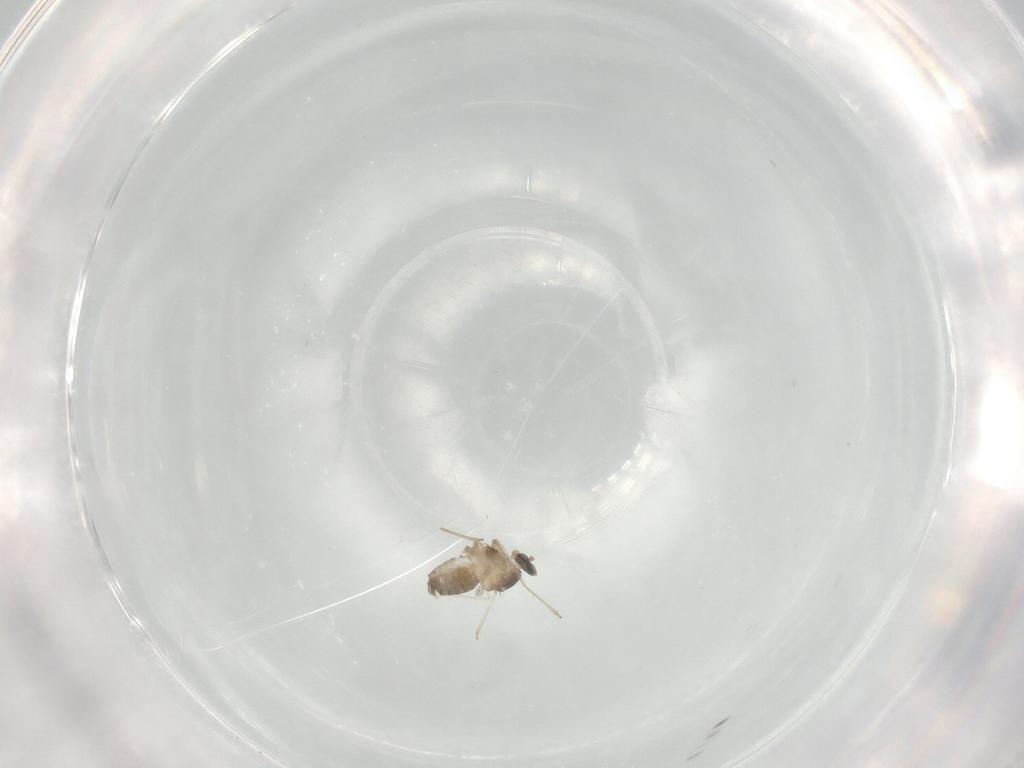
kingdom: Animalia
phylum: Arthropoda
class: Insecta
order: Diptera
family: Cecidomyiidae
